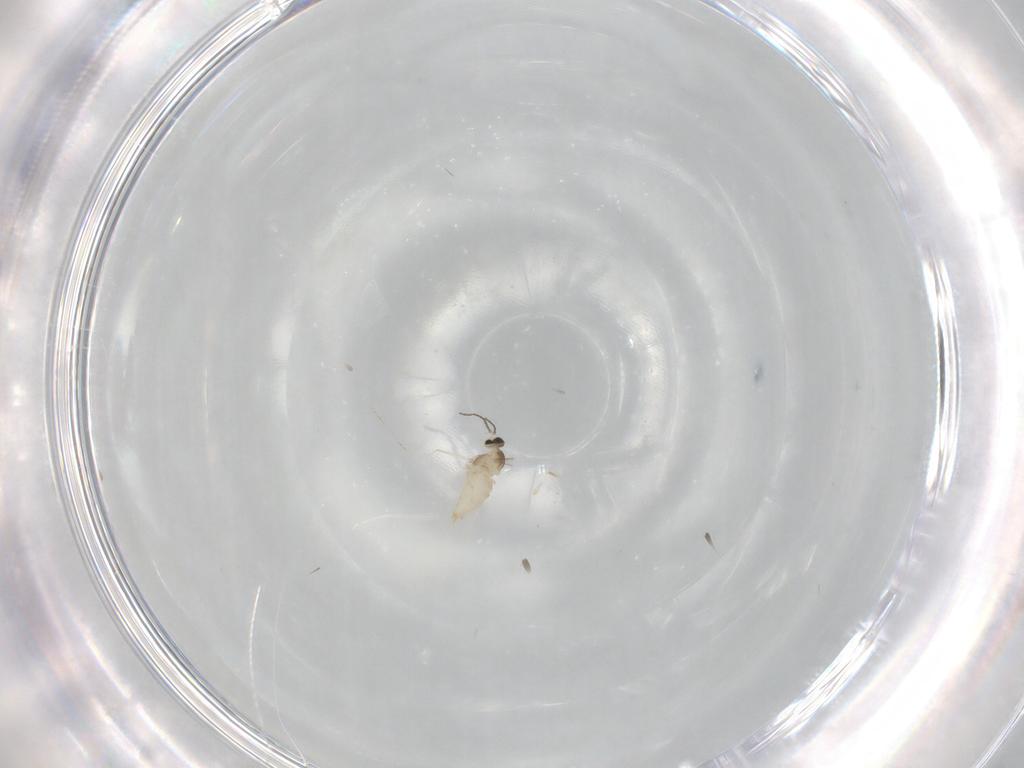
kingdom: Animalia
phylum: Arthropoda
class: Insecta
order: Diptera
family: Cecidomyiidae
